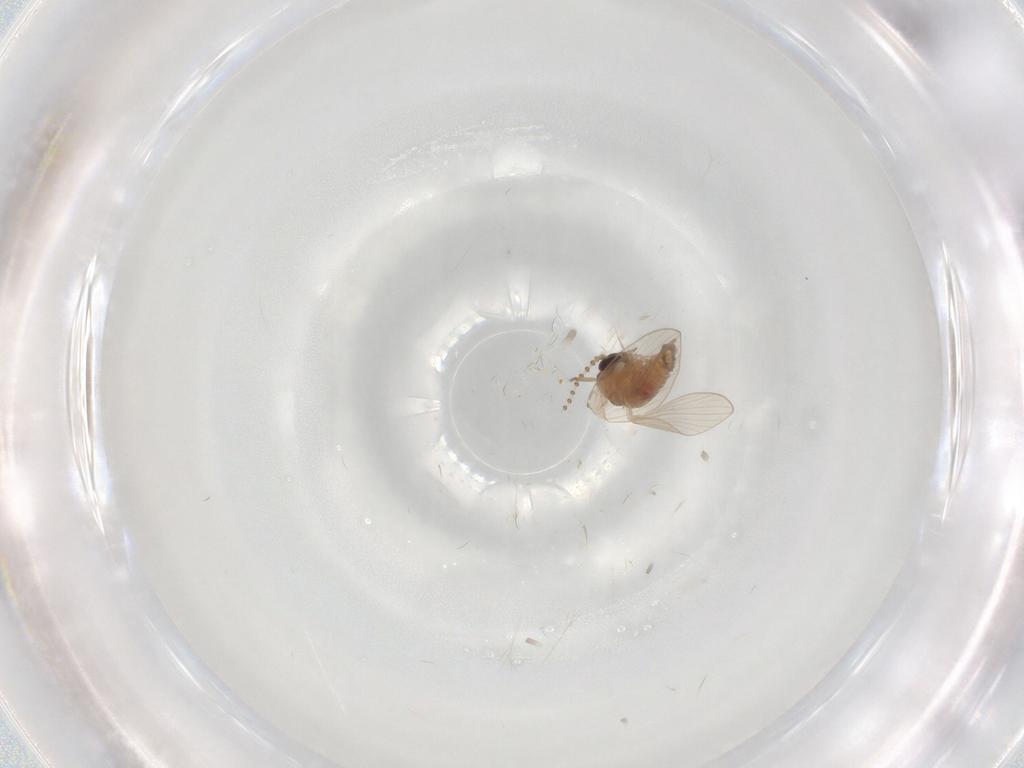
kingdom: Animalia
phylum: Arthropoda
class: Insecta
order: Diptera
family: Psychodidae
